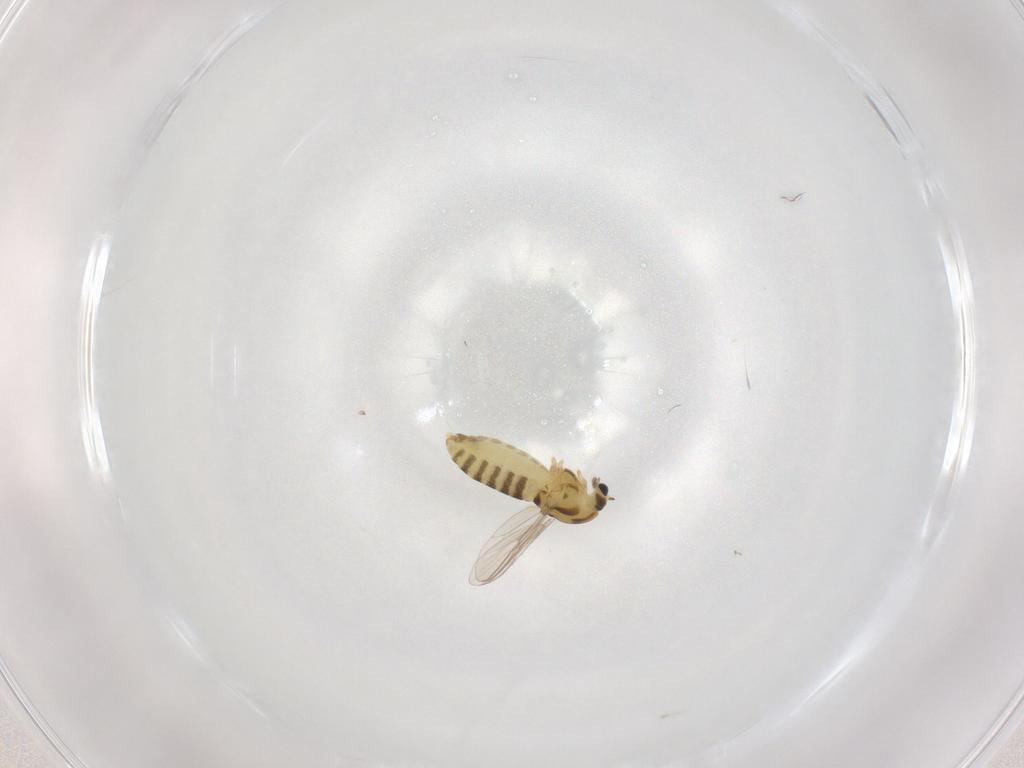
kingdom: Animalia
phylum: Arthropoda
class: Insecta
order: Diptera
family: Chironomidae
